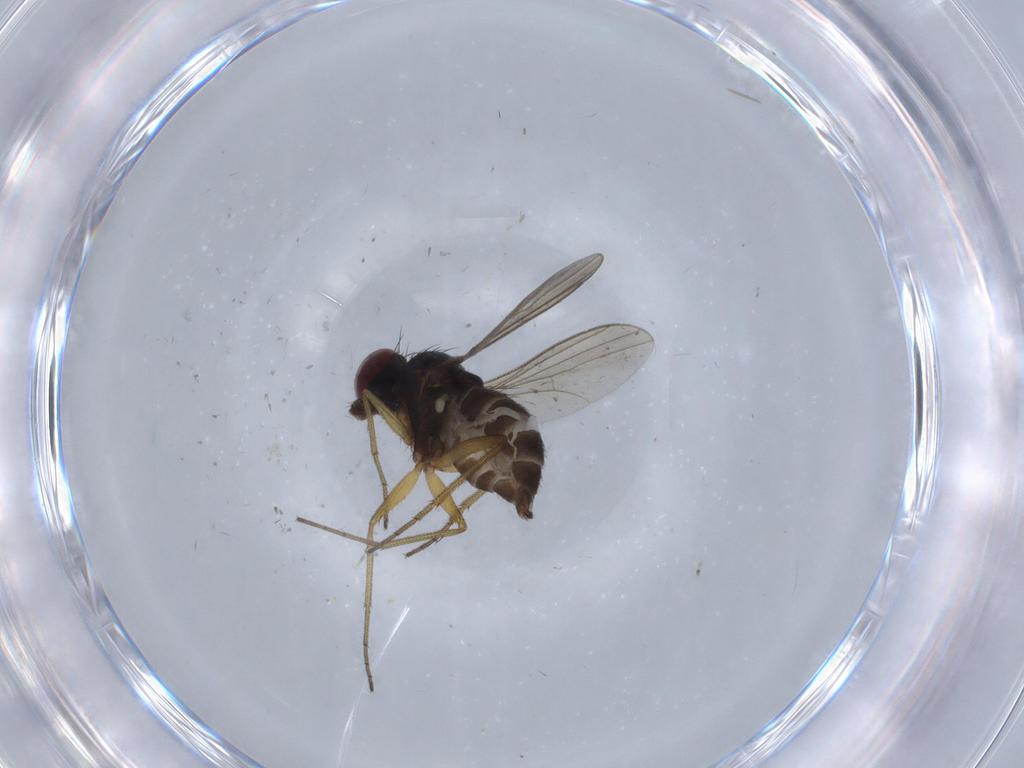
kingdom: Animalia
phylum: Arthropoda
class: Insecta
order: Diptera
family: Dolichopodidae
